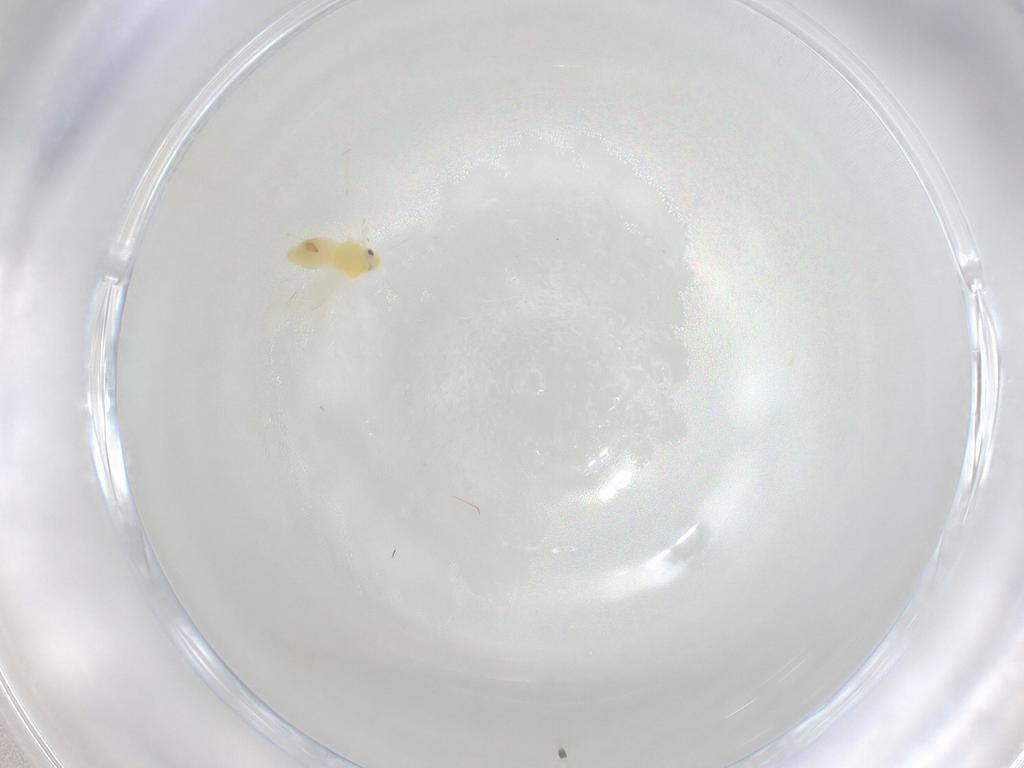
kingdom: Animalia
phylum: Arthropoda
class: Insecta
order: Hemiptera
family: Aleyrodidae
